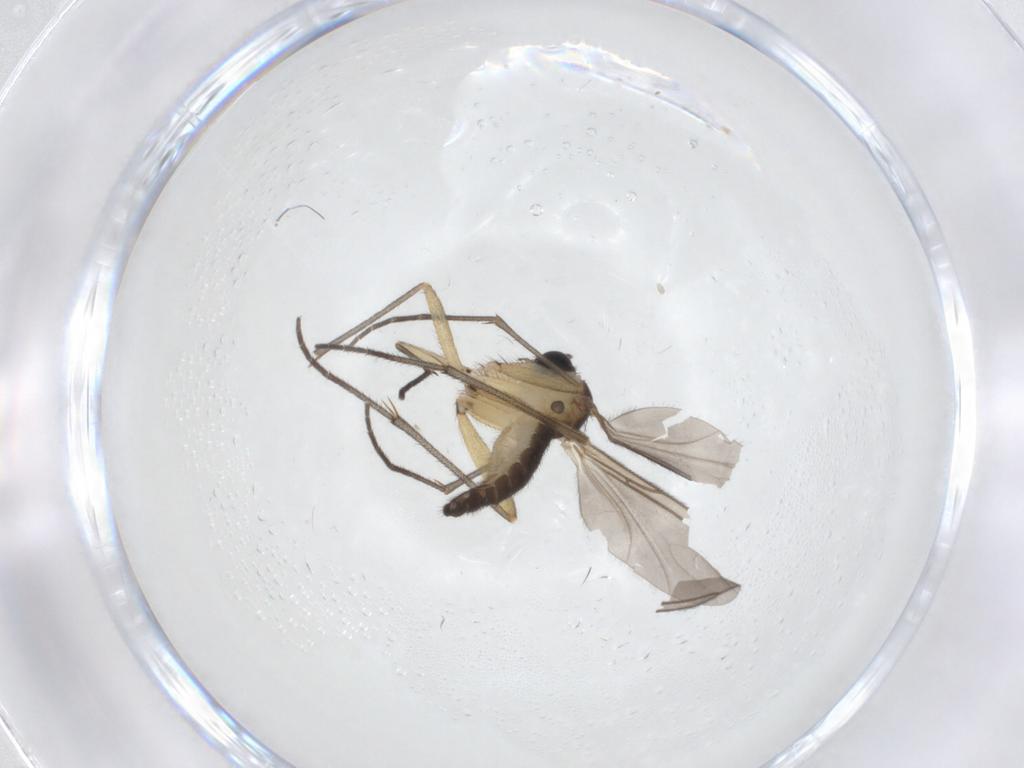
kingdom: Animalia
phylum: Arthropoda
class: Insecta
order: Diptera
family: Sciaridae
